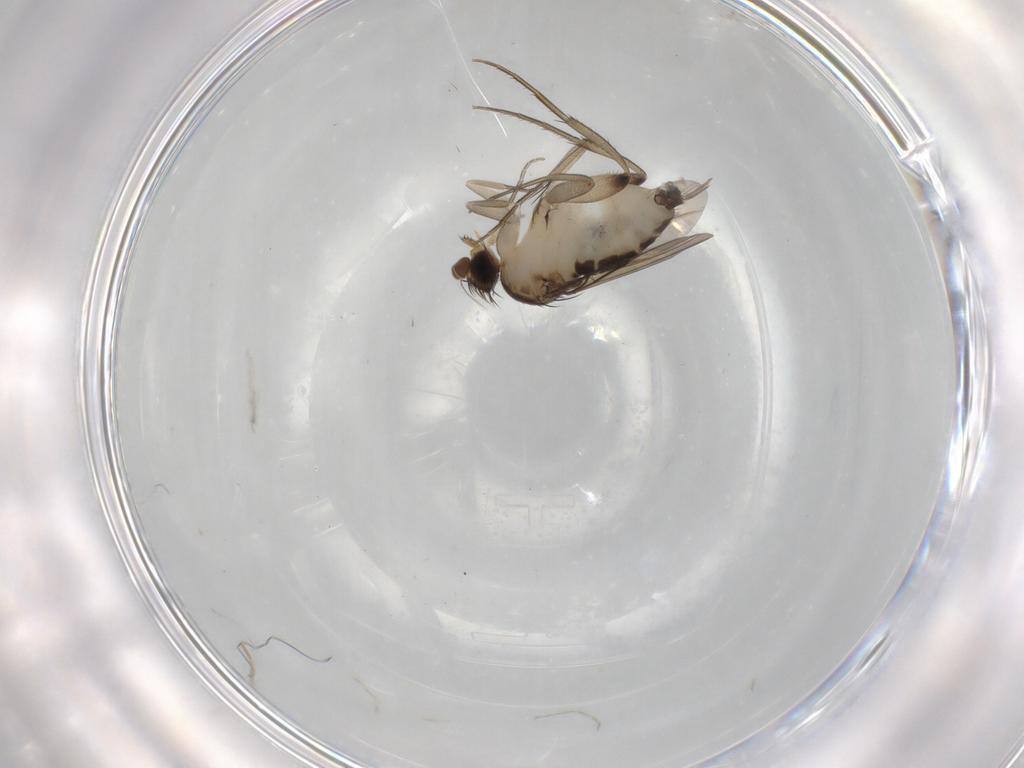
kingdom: Animalia
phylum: Arthropoda
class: Insecta
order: Diptera
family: Phoridae
